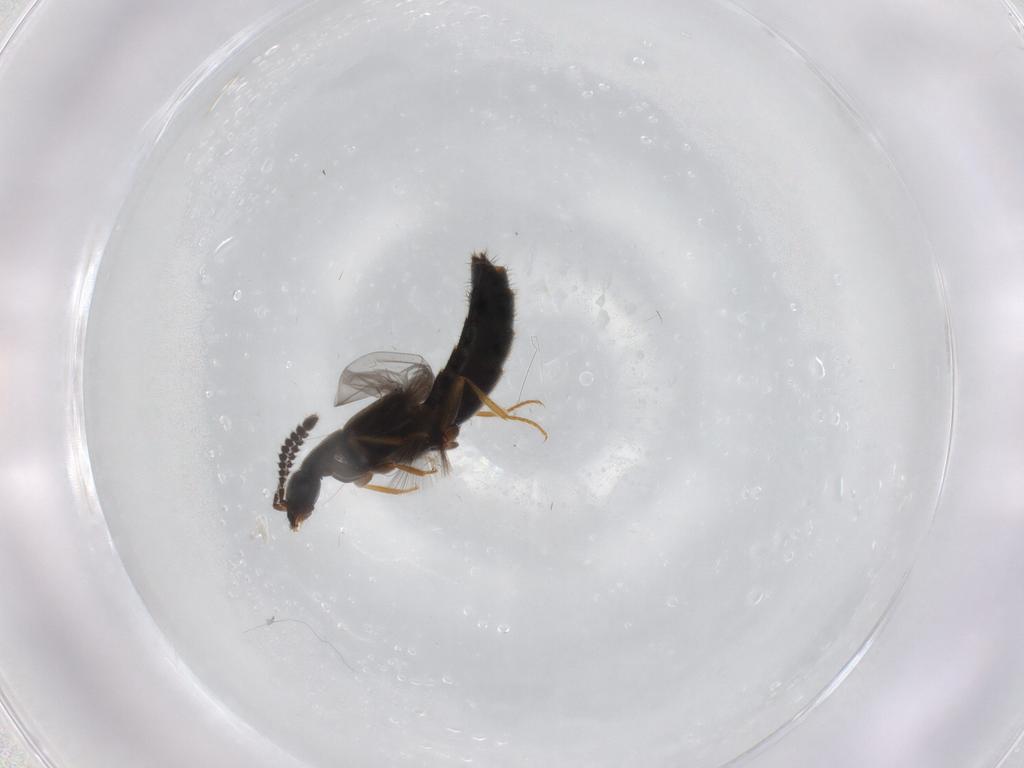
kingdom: Animalia
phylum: Arthropoda
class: Insecta
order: Coleoptera
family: Staphylinidae
